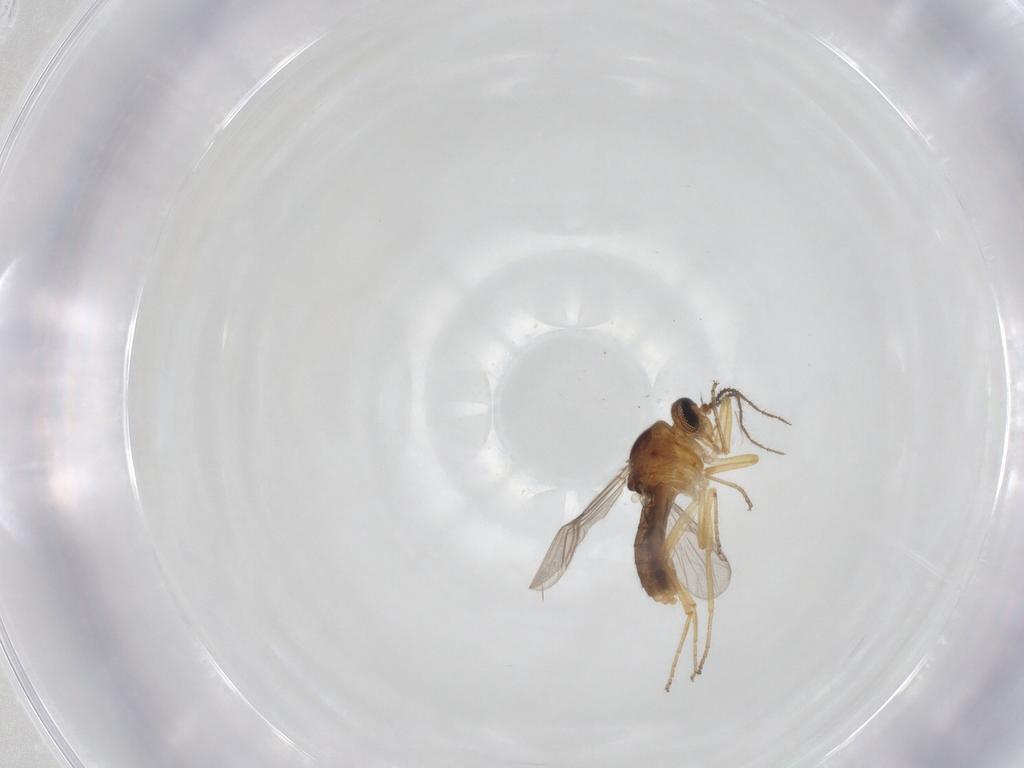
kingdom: Animalia
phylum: Arthropoda
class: Insecta
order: Diptera
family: Ceratopogonidae
